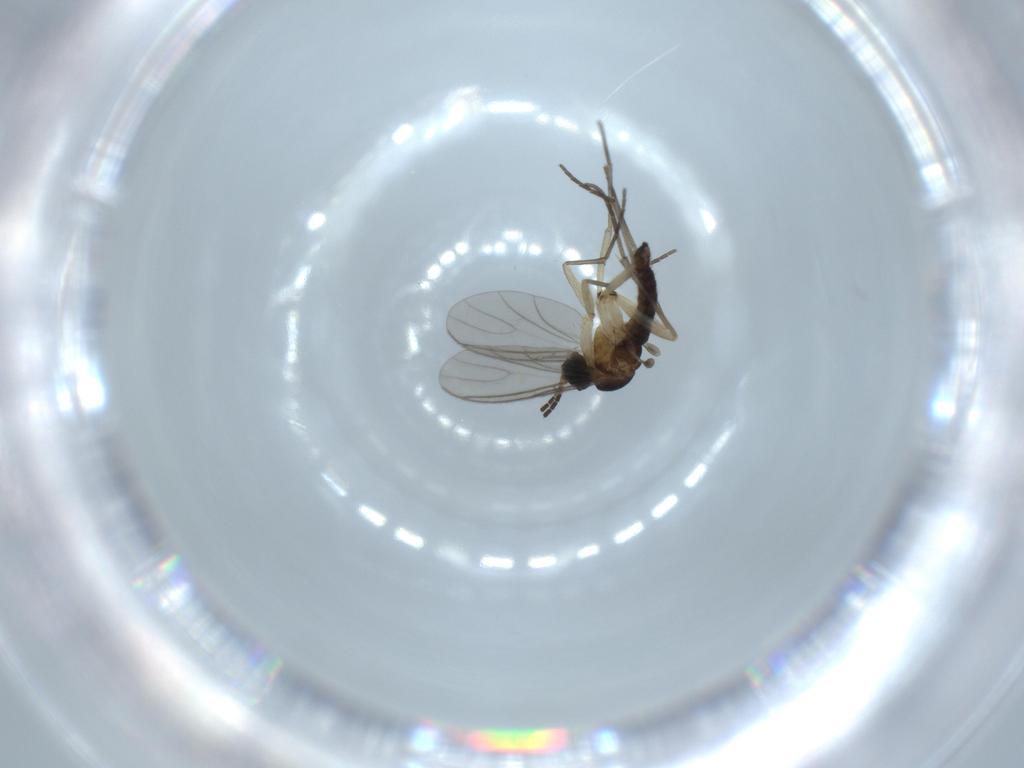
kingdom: Animalia
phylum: Arthropoda
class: Insecta
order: Diptera
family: Sciaridae
